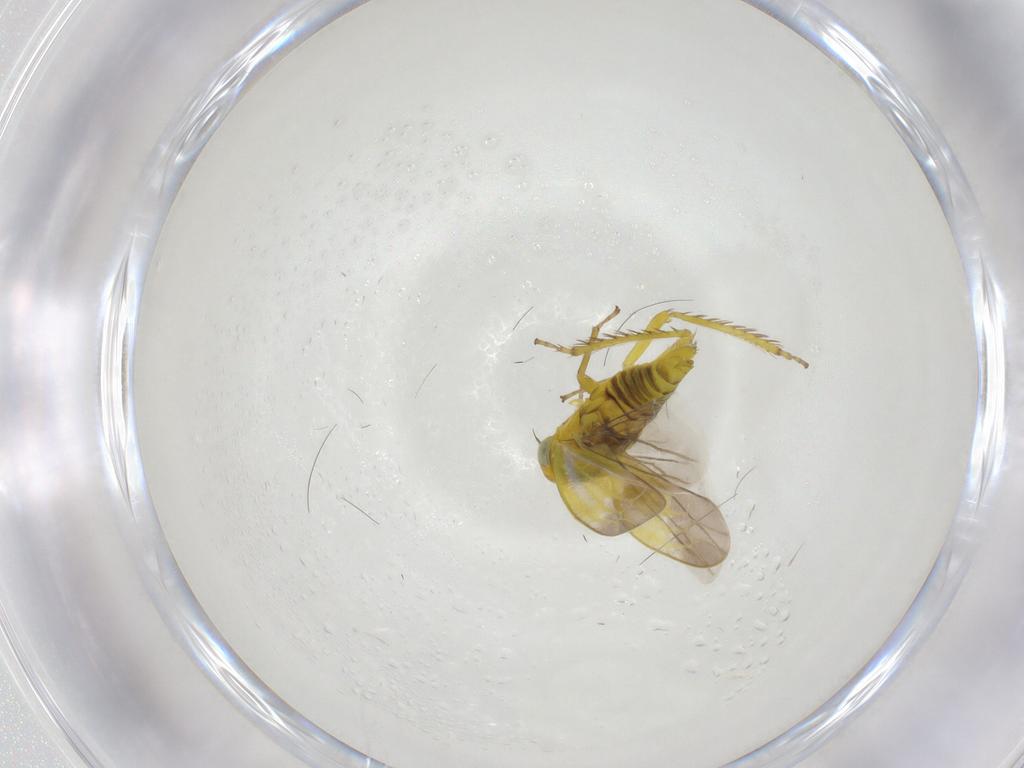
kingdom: Animalia
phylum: Arthropoda
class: Insecta
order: Hemiptera
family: Cicadellidae
